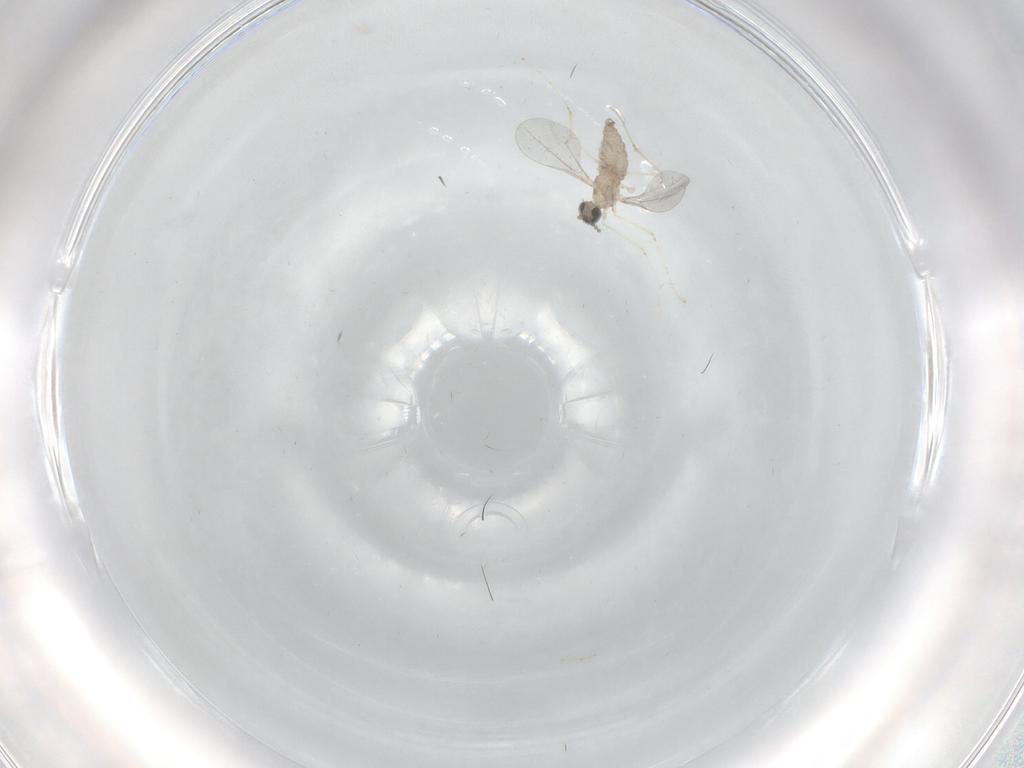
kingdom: Animalia
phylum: Arthropoda
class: Insecta
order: Diptera
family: Cecidomyiidae
